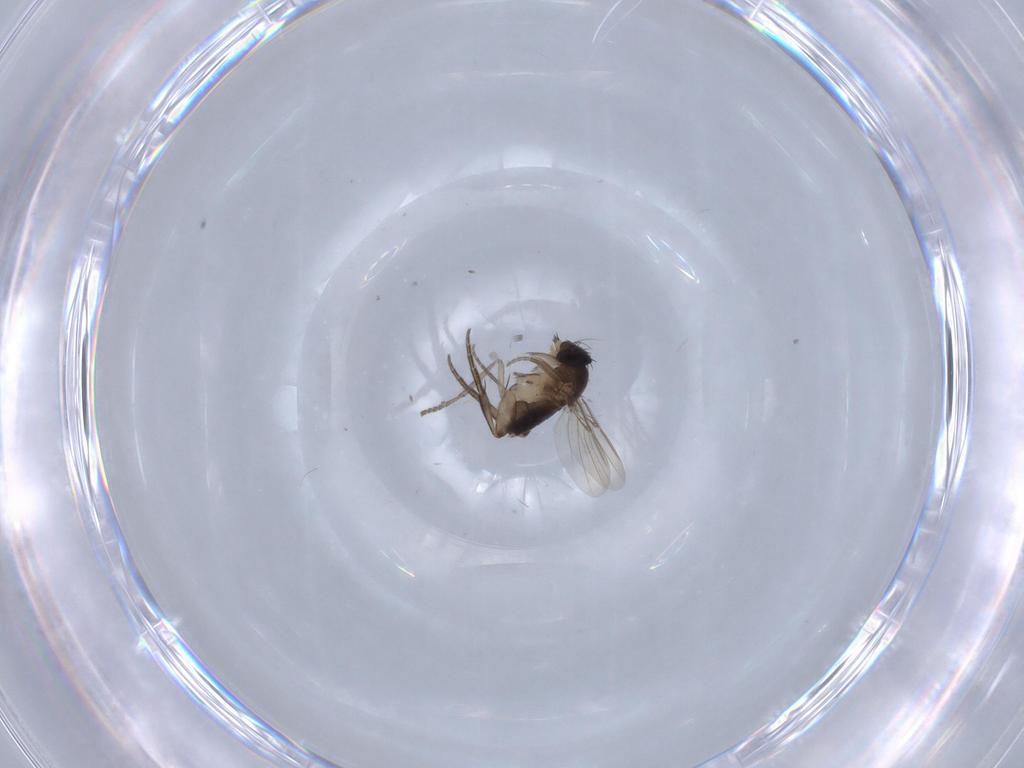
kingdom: Animalia
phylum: Arthropoda
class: Insecta
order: Diptera
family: Phoridae
